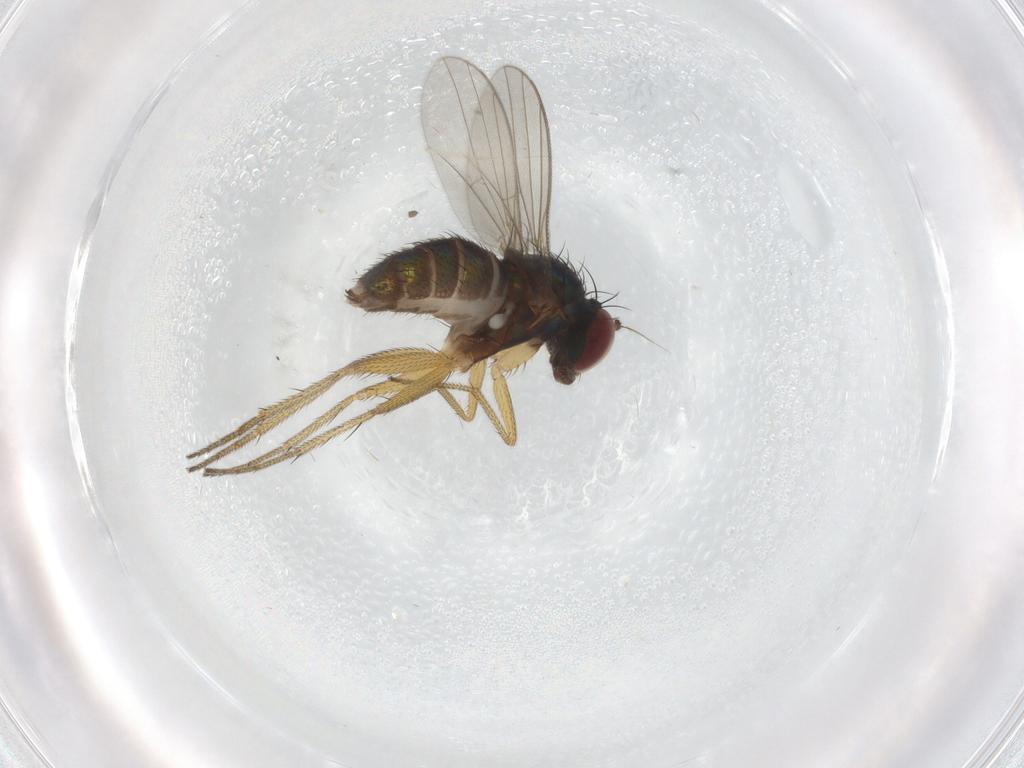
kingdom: Animalia
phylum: Arthropoda
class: Insecta
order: Diptera
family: Dolichopodidae
